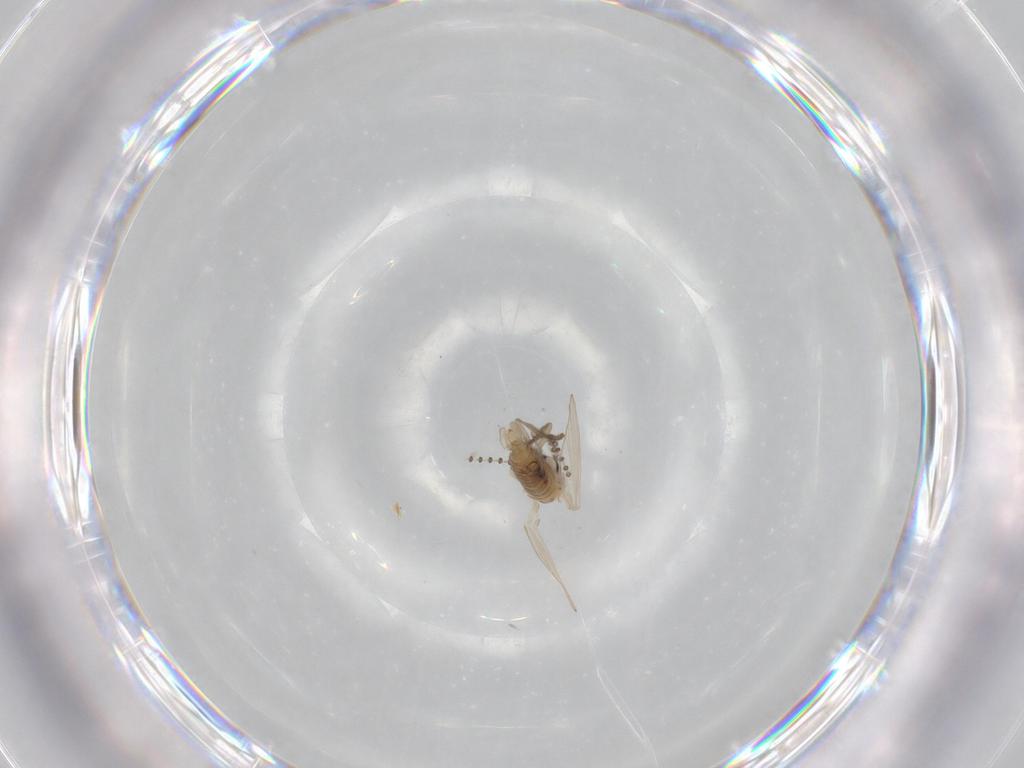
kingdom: Animalia
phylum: Arthropoda
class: Insecta
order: Diptera
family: Psychodidae
